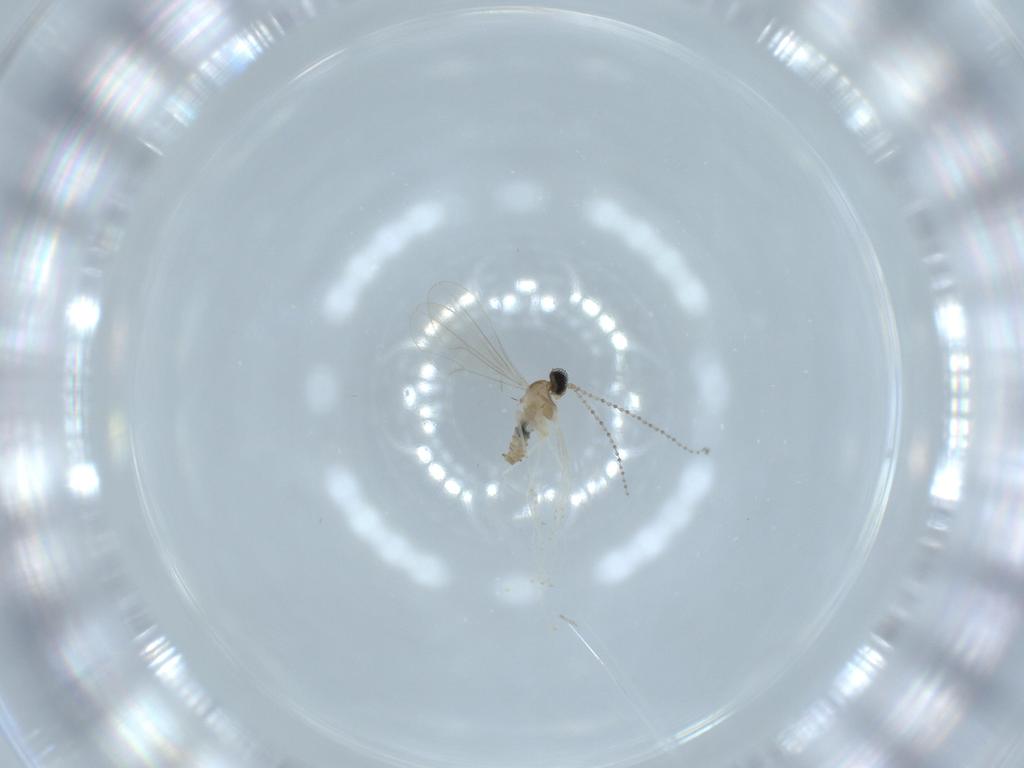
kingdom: Animalia
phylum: Arthropoda
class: Insecta
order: Diptera
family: Cecidomyiidae
